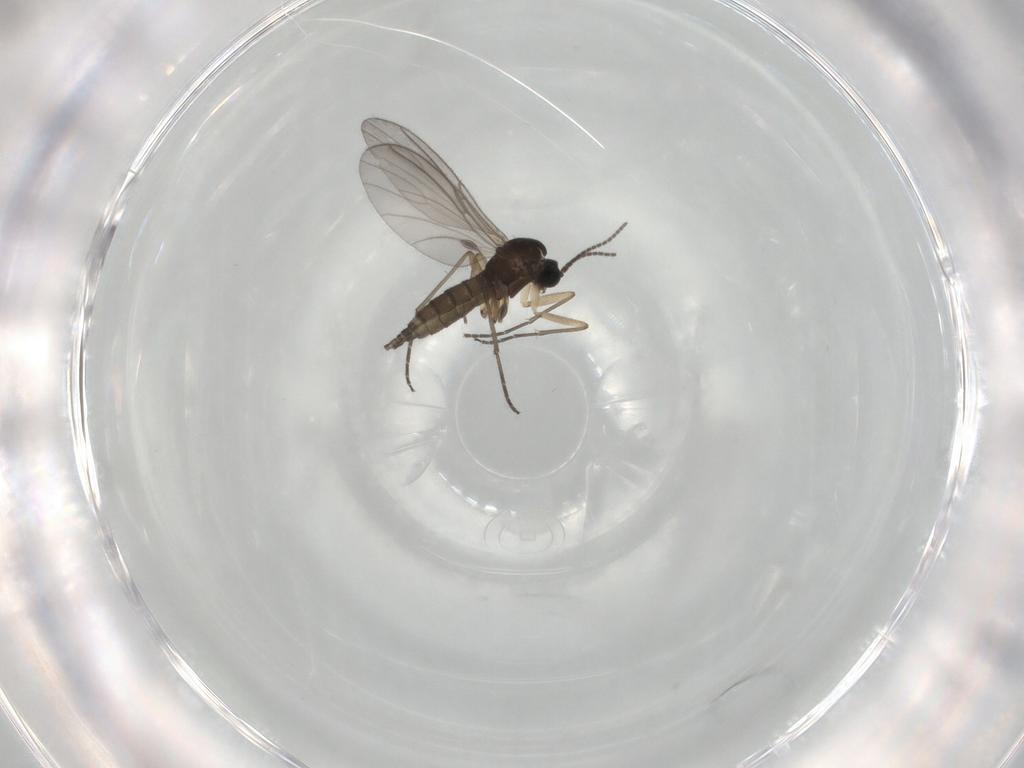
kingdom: Animalia
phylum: Arthropoda
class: Insecta
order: Diptera
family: Sciaridae
